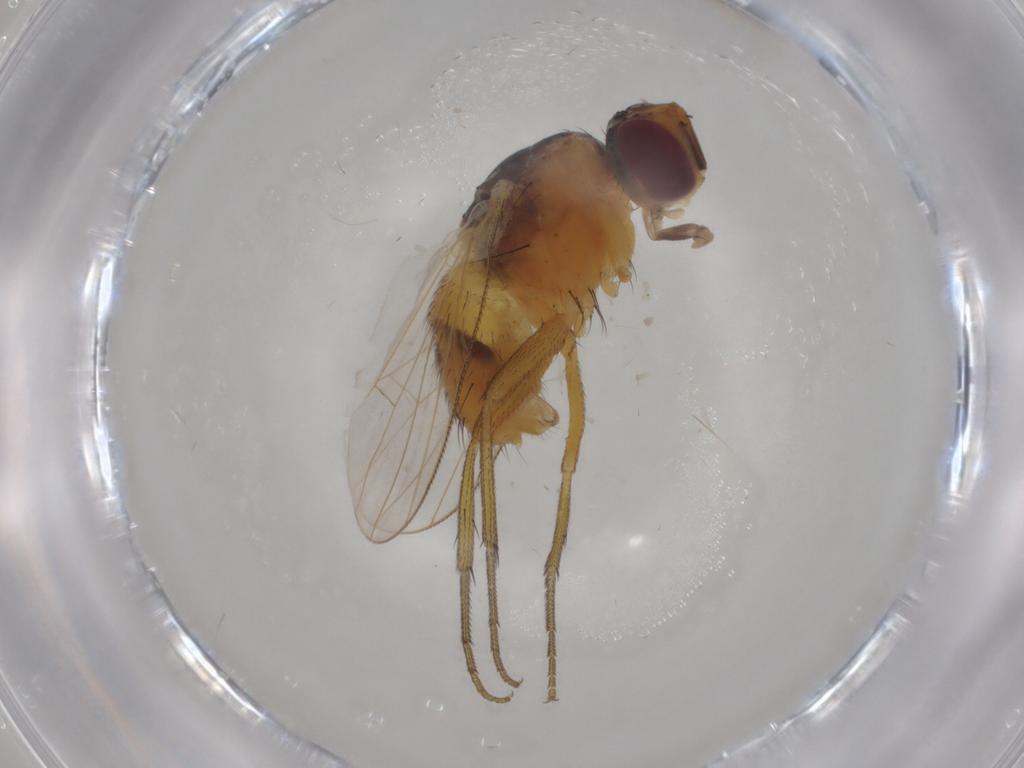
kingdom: Animalia
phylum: Arthropoda
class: Insecta
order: Diptera
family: Muscidae
